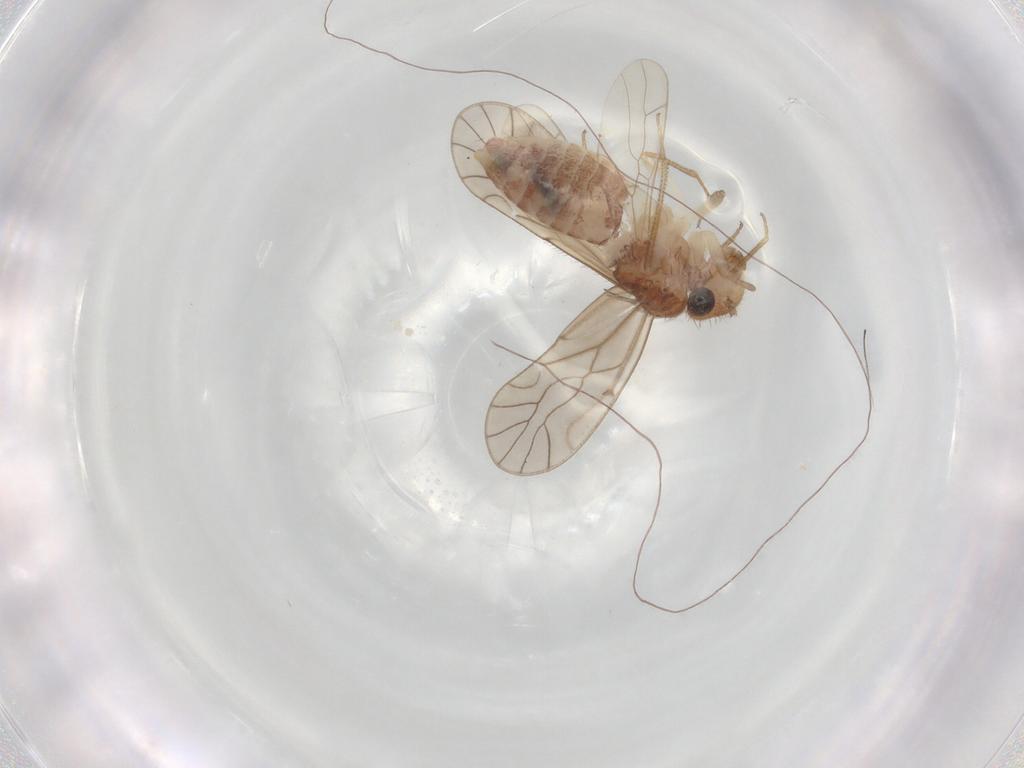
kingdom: Animalia
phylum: Arthropoda
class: Insecta
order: Psocodea
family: Caeciliusidae
